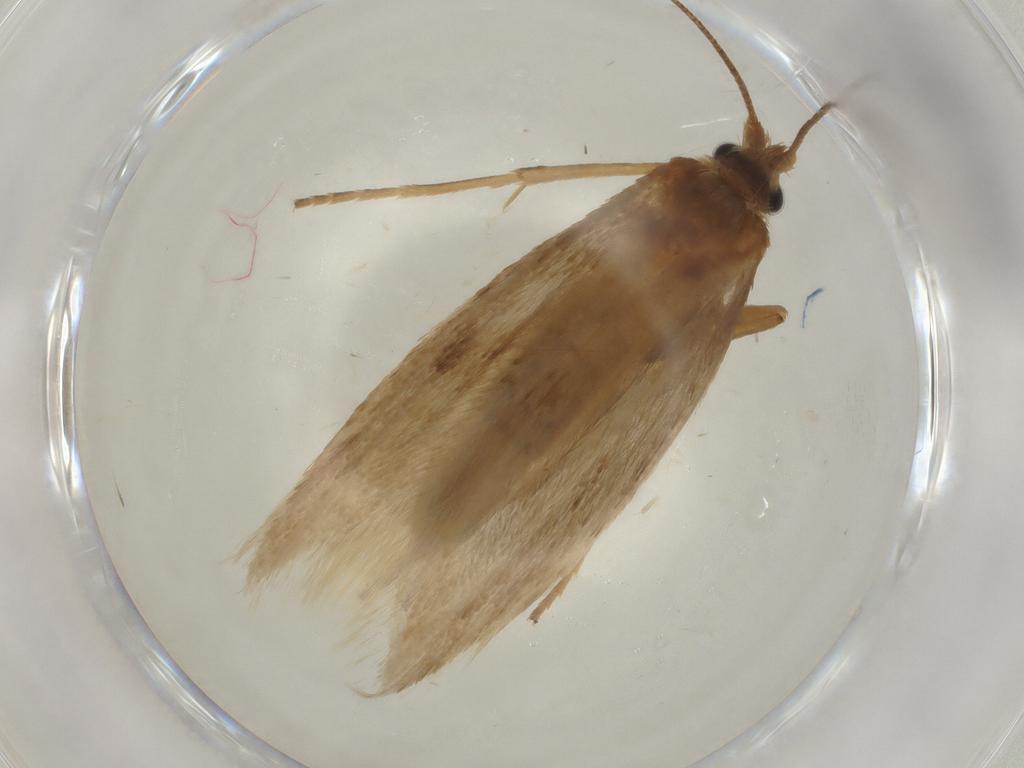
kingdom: Animalia
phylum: Arthropoda
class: Insecta
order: Lepidoptera
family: Adelidae
